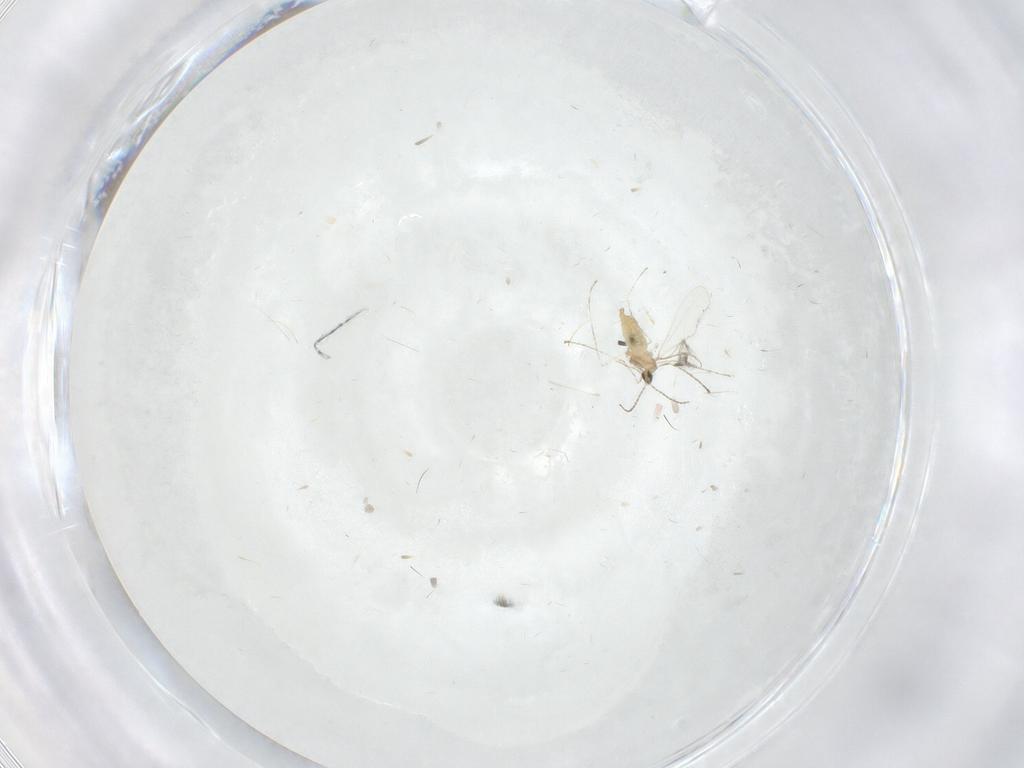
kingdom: Animalia
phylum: Arthropoda
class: Insecta
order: Diptera
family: Cecidomyiidae
